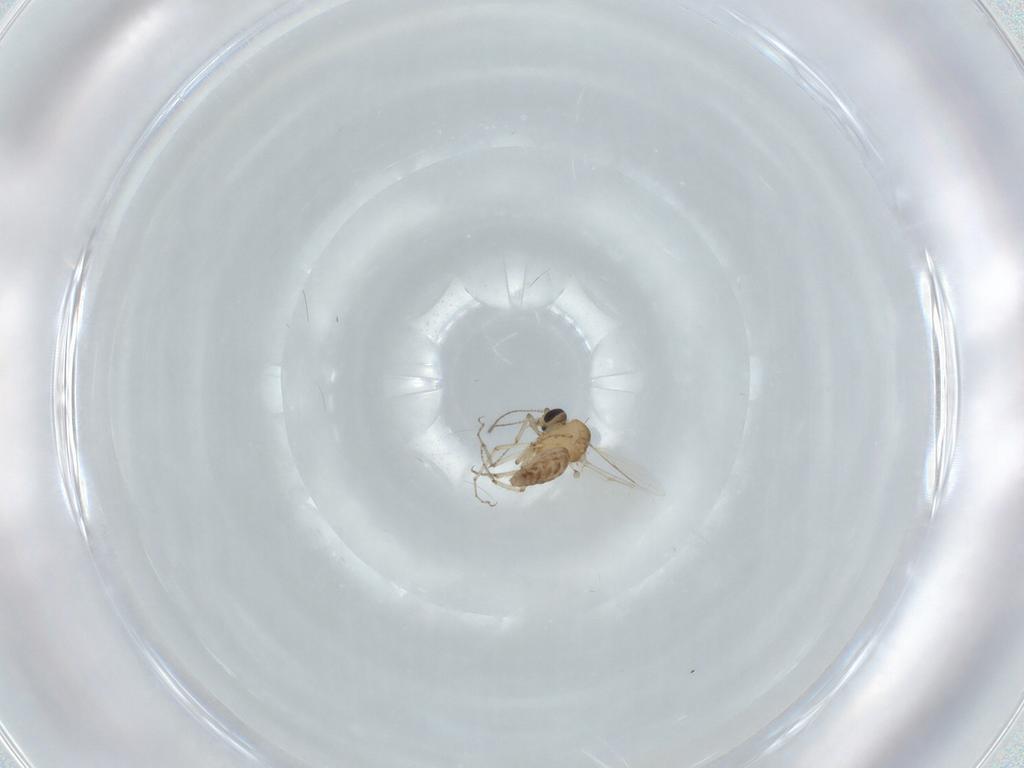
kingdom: Animalia
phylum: Arthropoda
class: Insecta
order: Diptera
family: Ceratopogonidae
